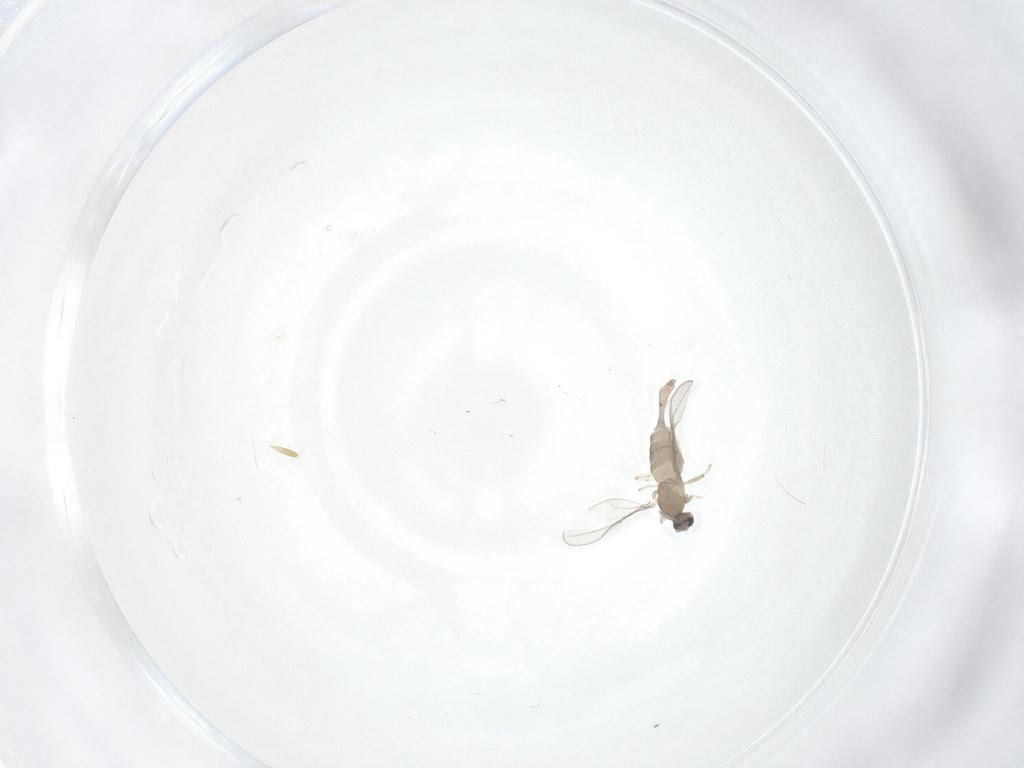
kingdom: Animalia
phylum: Arthropoda
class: Insecta
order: Diptera
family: Cecidomyiidae
